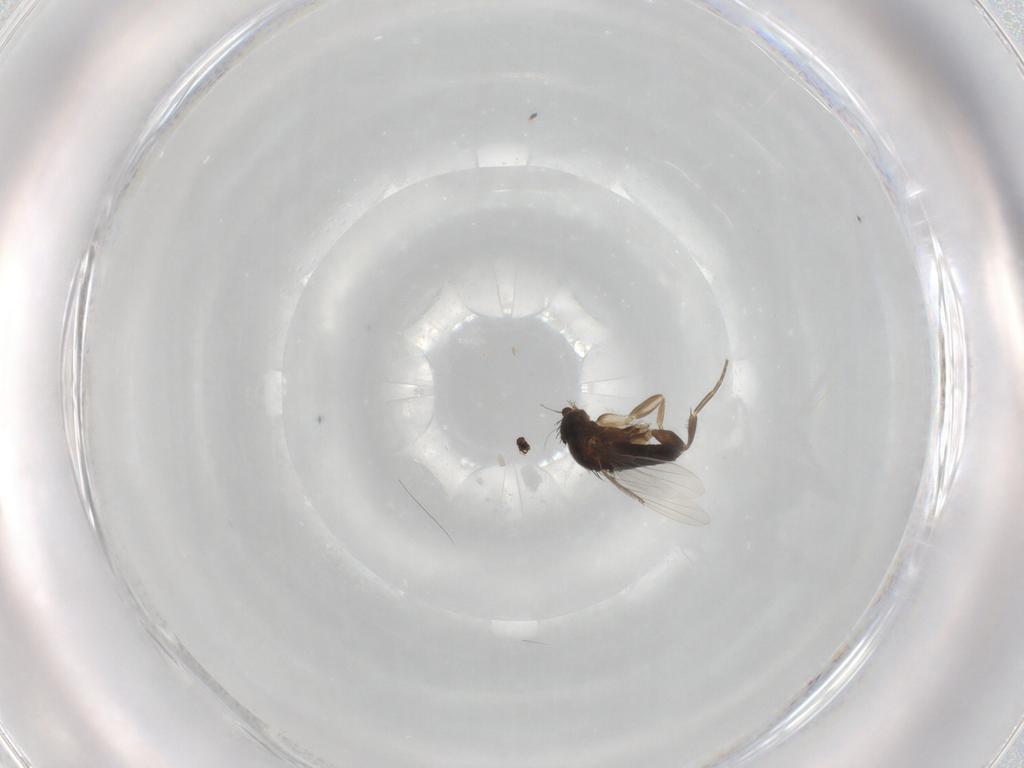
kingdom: Animalia
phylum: Arthropoda
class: Insecta
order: Diptera
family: Phoridae
